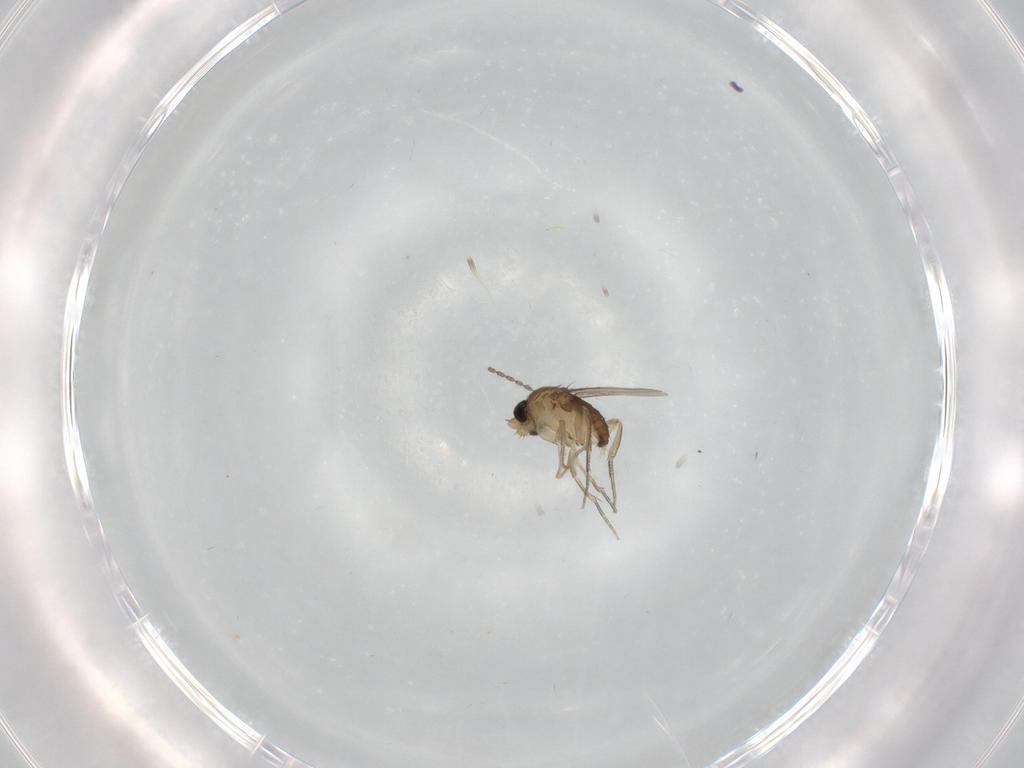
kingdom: Animalia
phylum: Arthropoda
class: Insecta
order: Diptera
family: Cecidomyiidae
